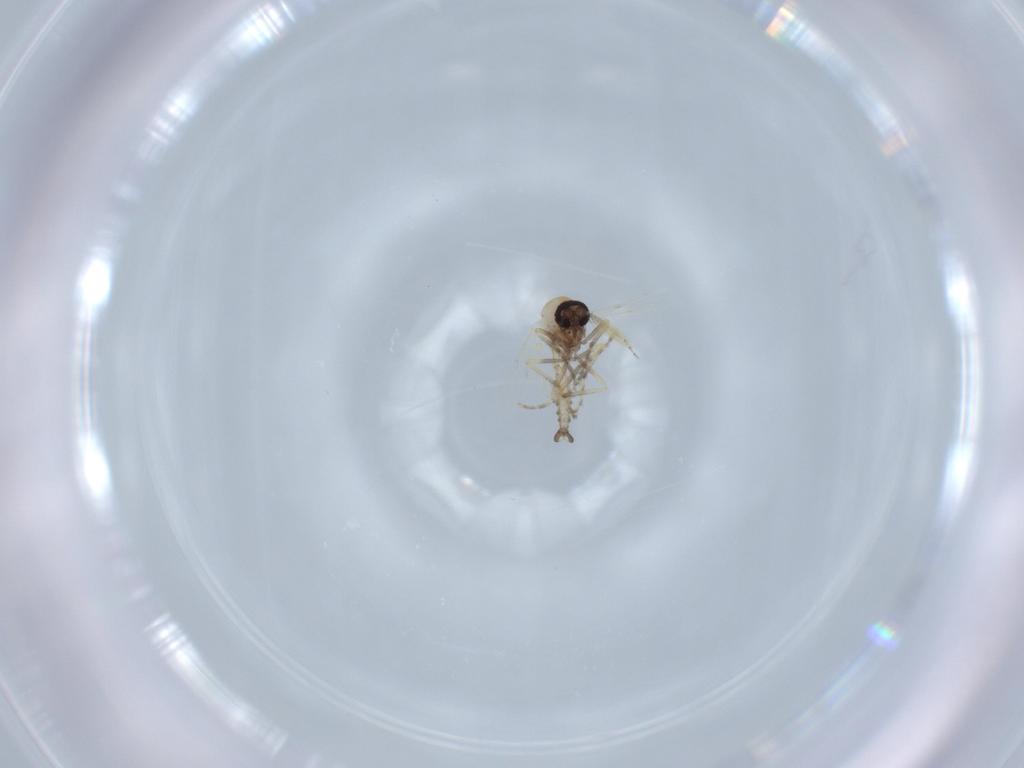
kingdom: Animalia
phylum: Arthropoda
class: Insecta
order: Diptera
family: Ceratopogonidae
